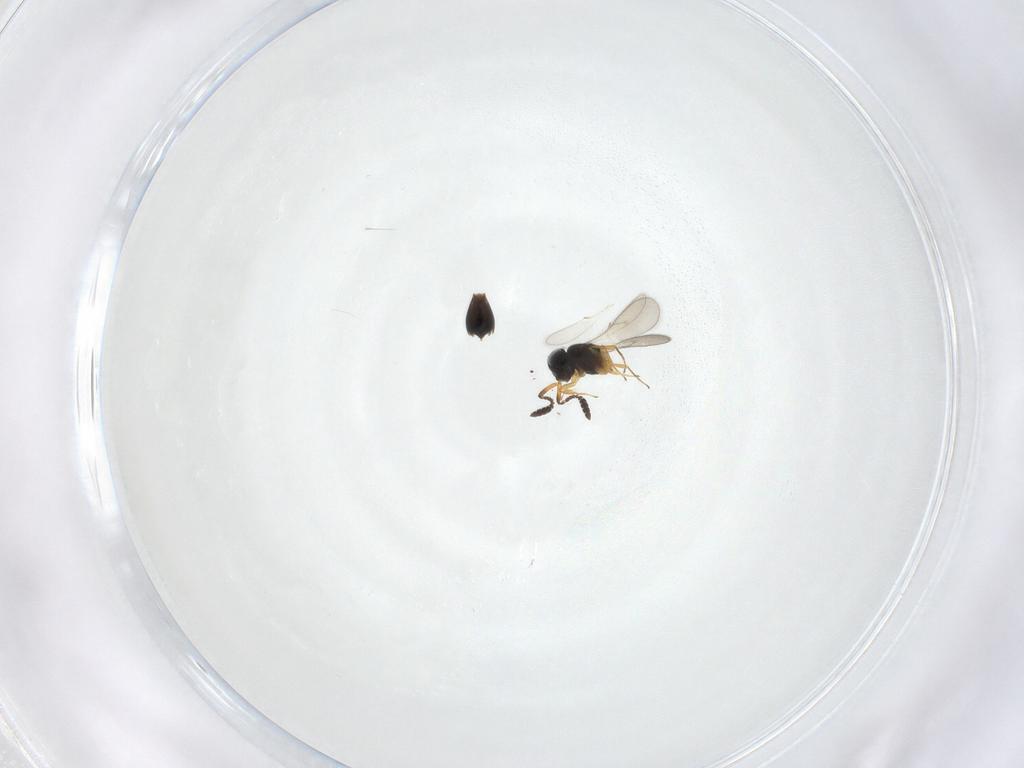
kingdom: Animalia
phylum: Arthropoda
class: Insecta
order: Hymenoptera
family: Scelionidae
